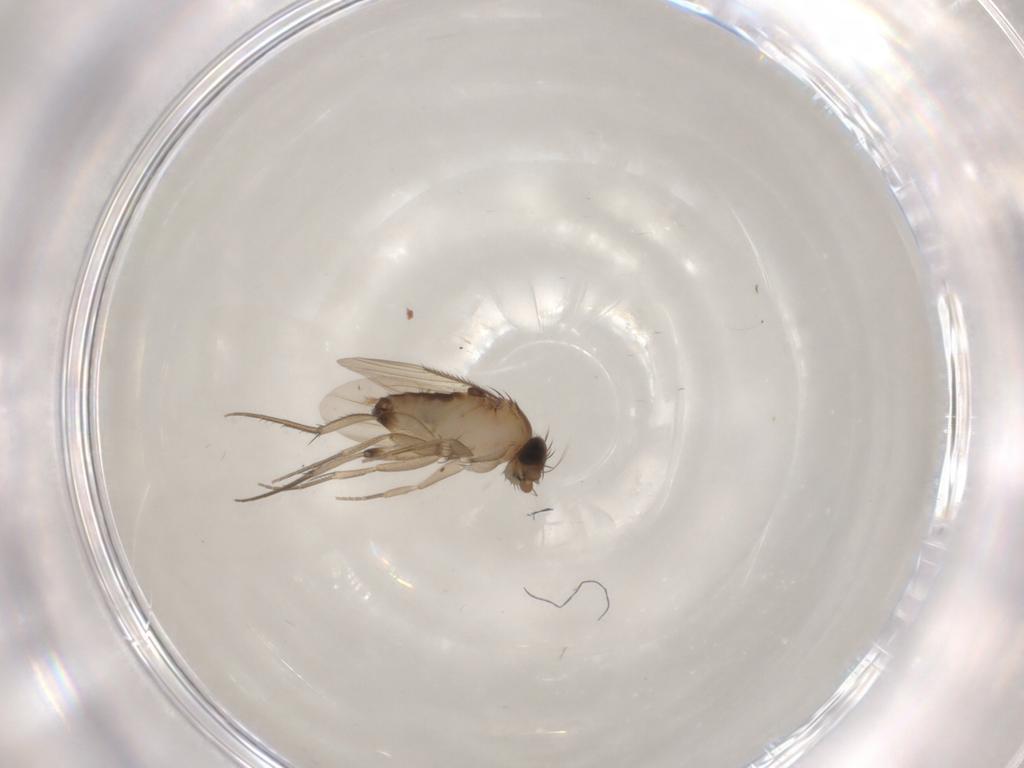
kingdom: Animalia
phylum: Arthropoda
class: Insecta
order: Diptera
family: Phoridae
